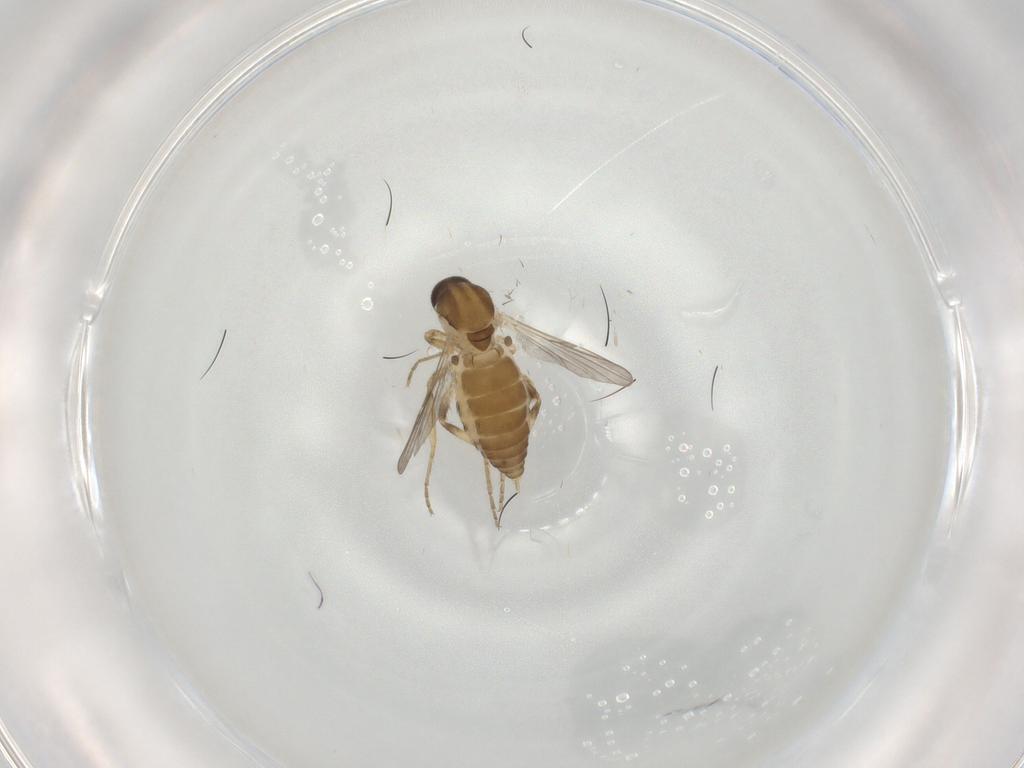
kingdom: Animalia
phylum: Arthropoda
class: Insecta
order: Diptera
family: Ceratopogonidae
